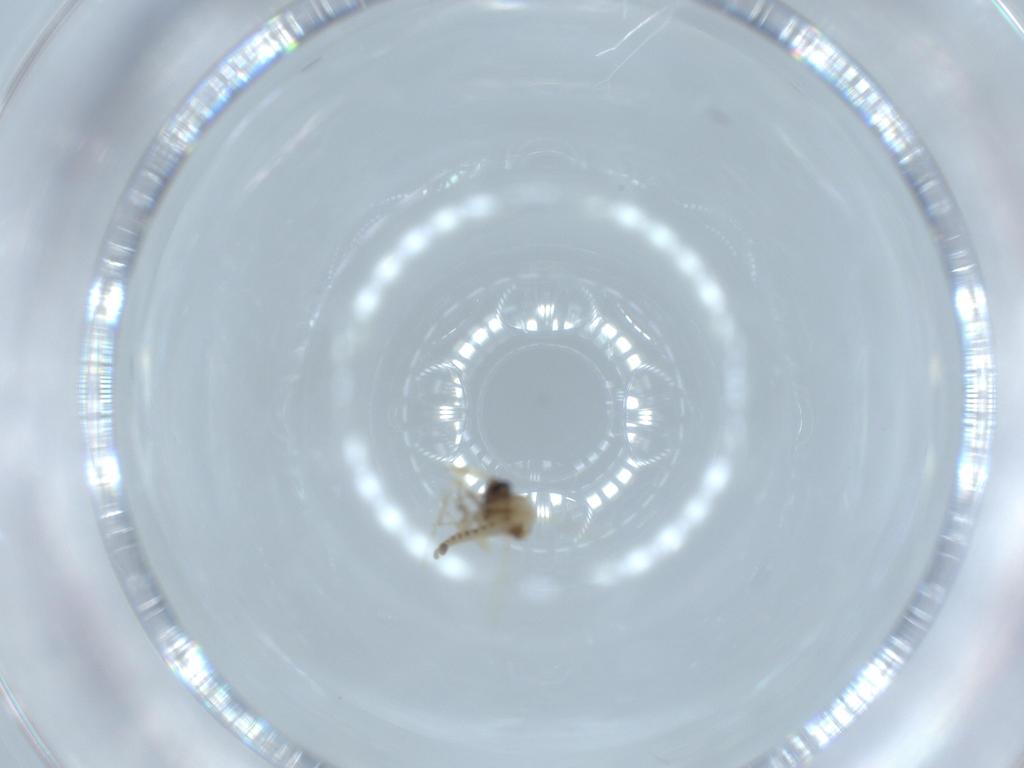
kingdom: Animalia
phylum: Arthropoda
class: Insecta
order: Diptera
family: Ceratopogonidae
